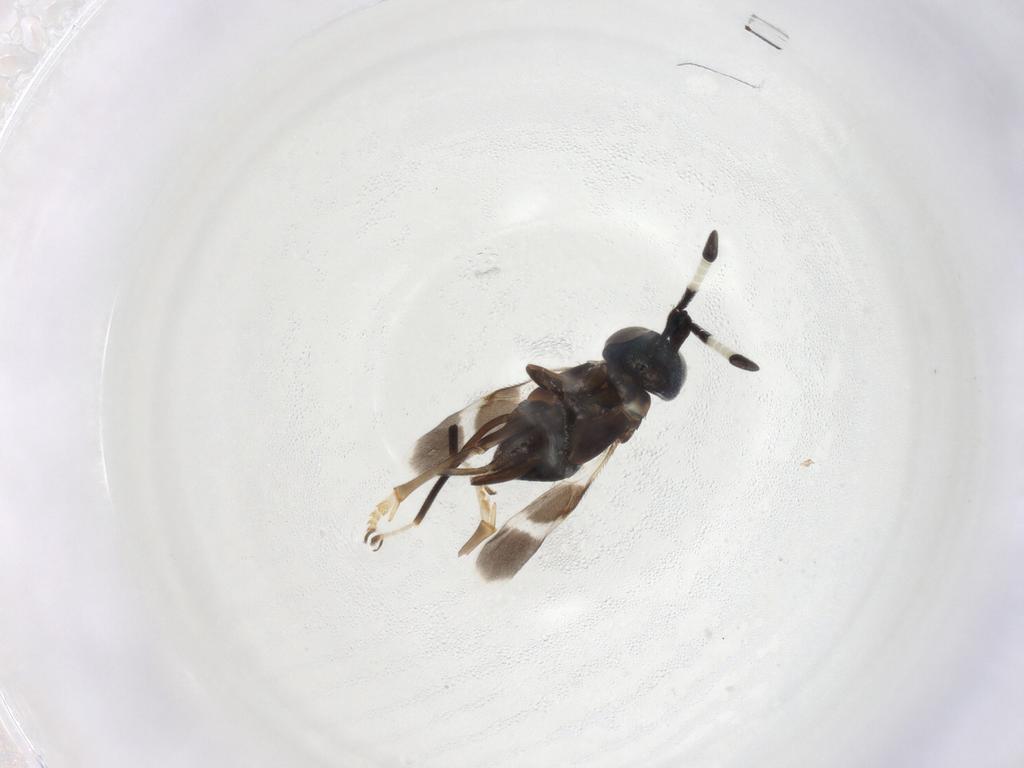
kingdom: Animalia
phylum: Arthropoda
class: Insecta
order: Hymenoptera
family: Encyrtidae
